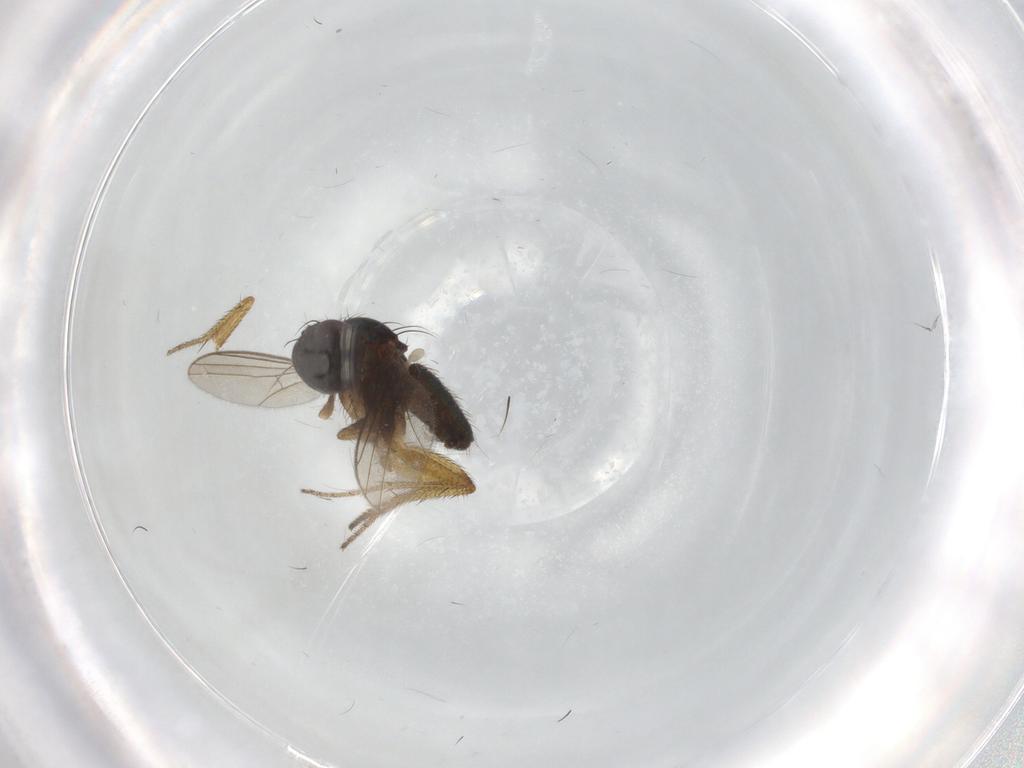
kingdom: Animalia
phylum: Arthropoda
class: Insecta
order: Diptera
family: Dolichopodidae
